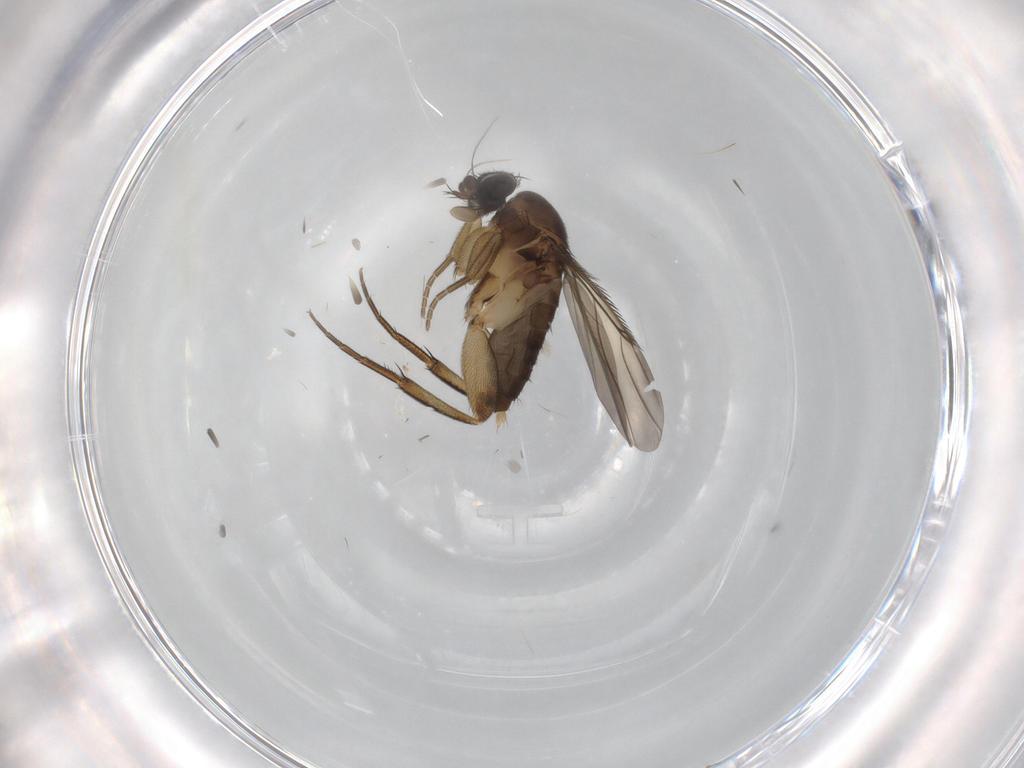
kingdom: Animalia
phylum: Arthropoda
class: Insecta
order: Diptera
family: Phoridae
